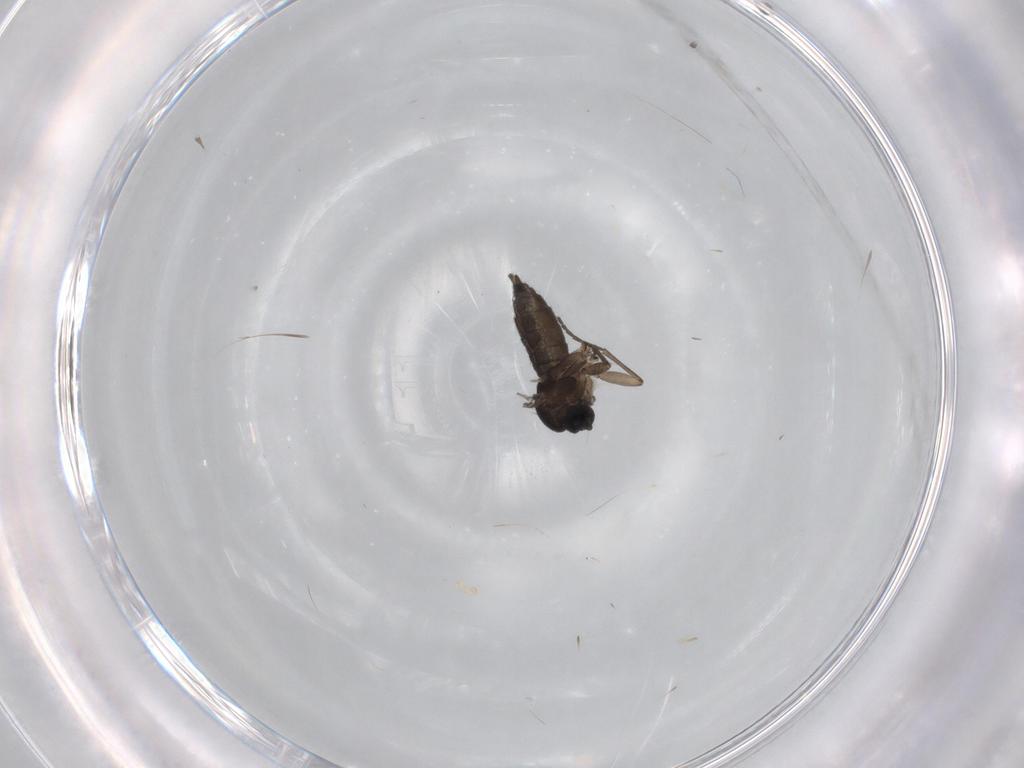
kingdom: Animalia
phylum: Arthropoda
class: Insecta
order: Diptera
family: Sciaridae
